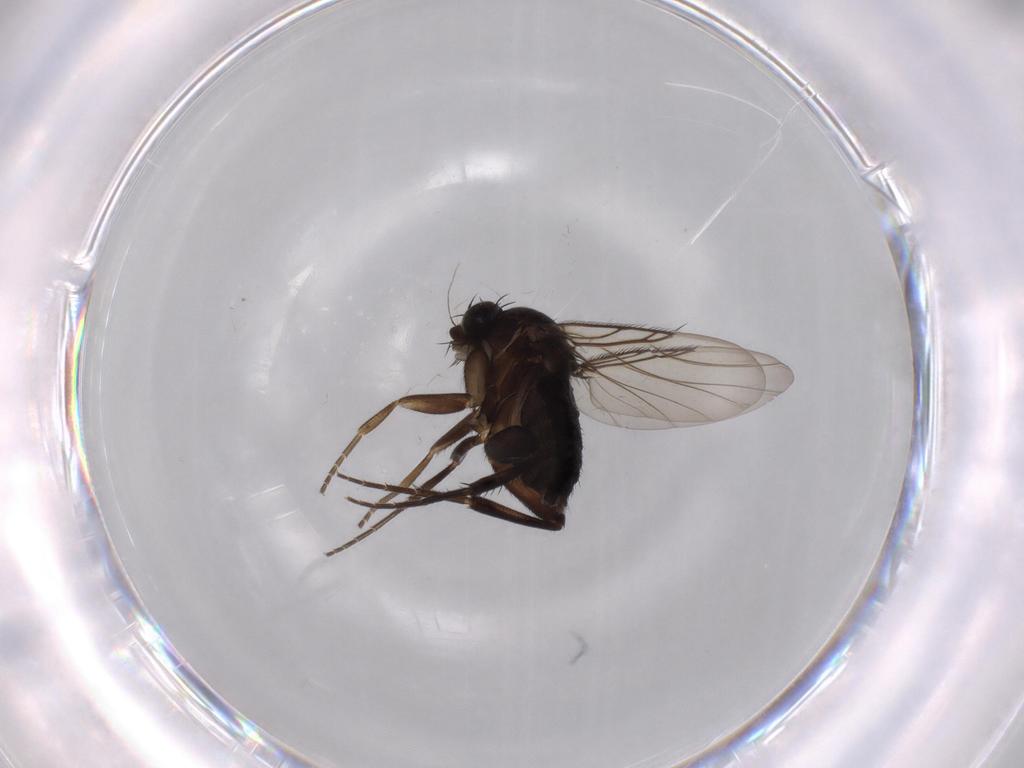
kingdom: Animalia
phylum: Arthropoda
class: Insecta
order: Diptera
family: Phoridae
